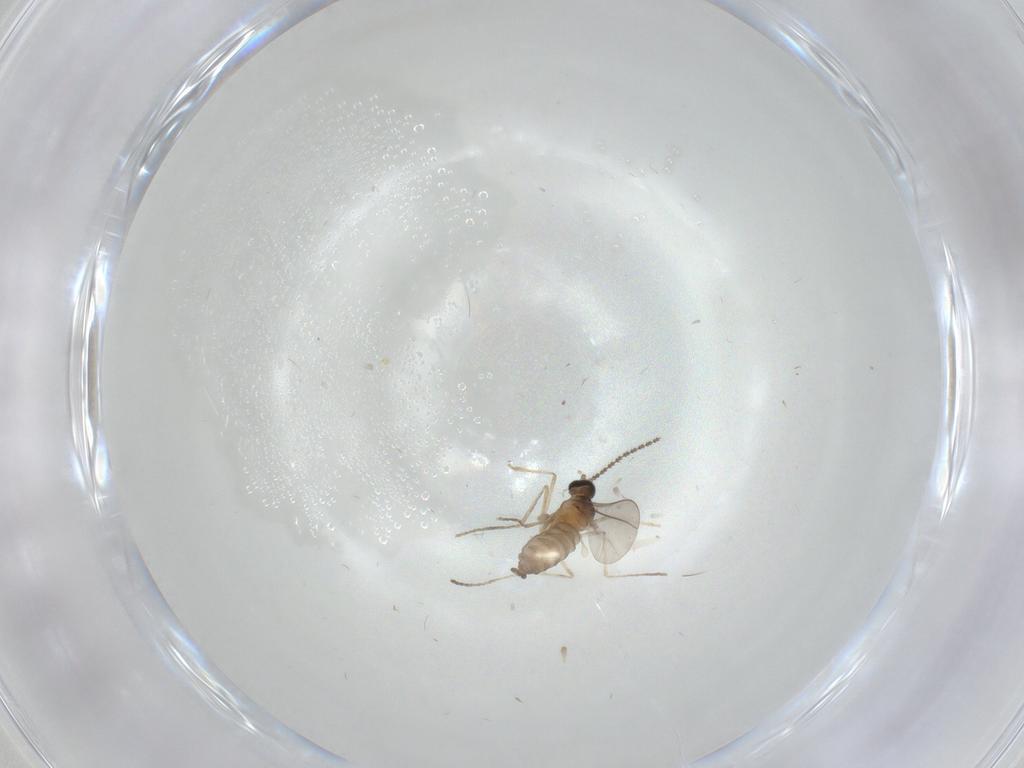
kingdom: Animalia
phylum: Arthropoda
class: Insecta
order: Diptera
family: Cecidomyiidae
